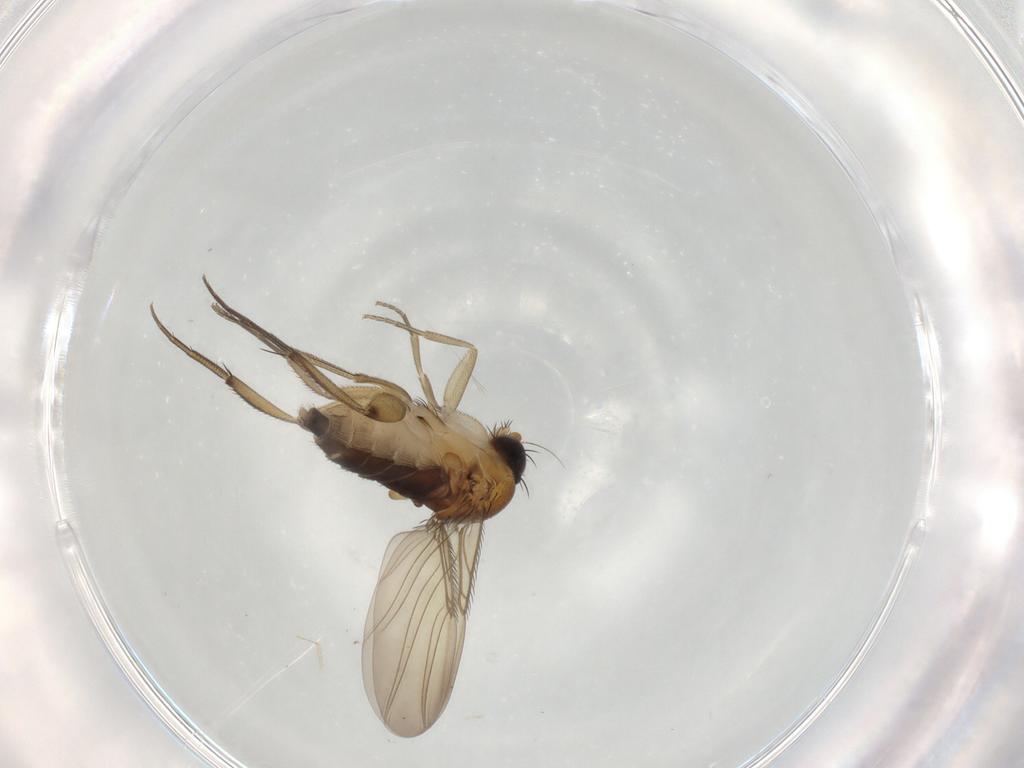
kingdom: Animalia
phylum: Arthropoda
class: Insecta
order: Diptera
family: Phoridae
